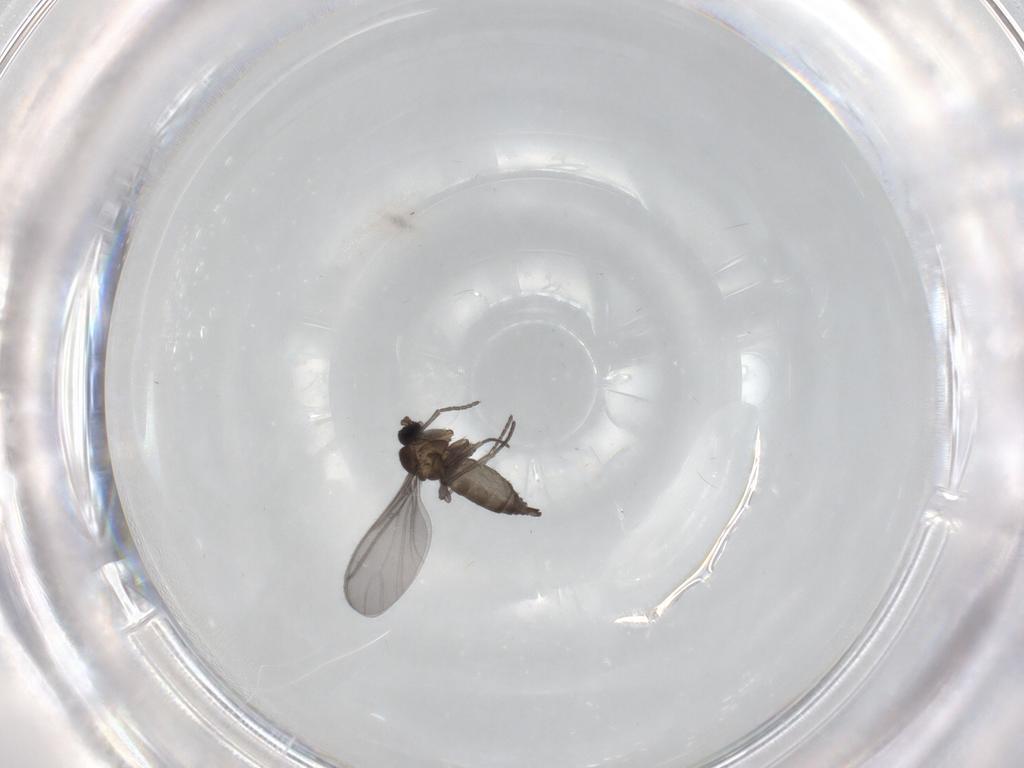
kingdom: Animalia
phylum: Arthropoda
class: Insecta
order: Diptera
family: Sciaridae
